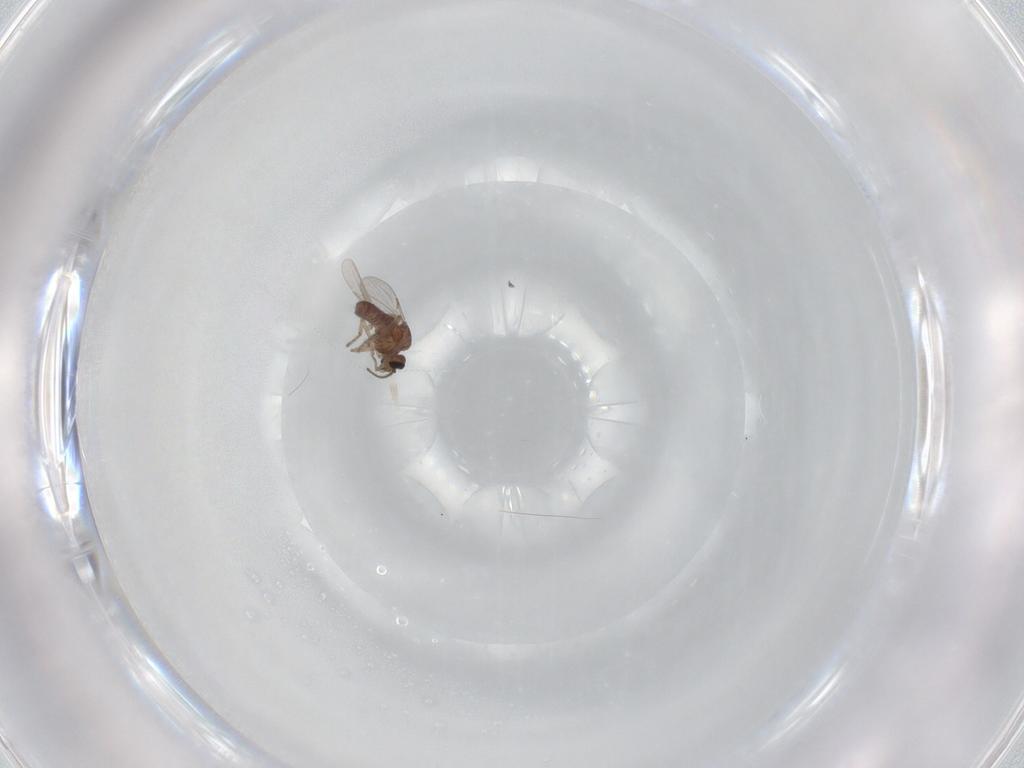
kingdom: Animalia
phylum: Arthropoda
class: Insecta
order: Diptera
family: Ceratopogonidae
